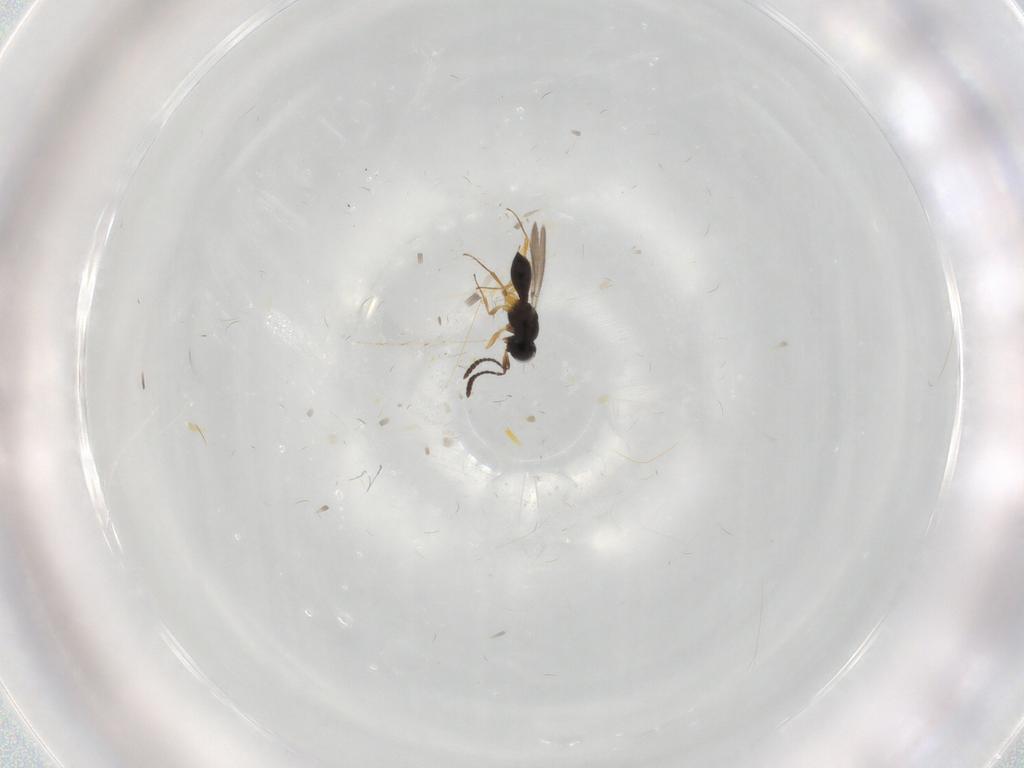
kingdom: Animalia
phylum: Arthropoda
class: Insecta
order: Hymenoptera
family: Scelionidae
